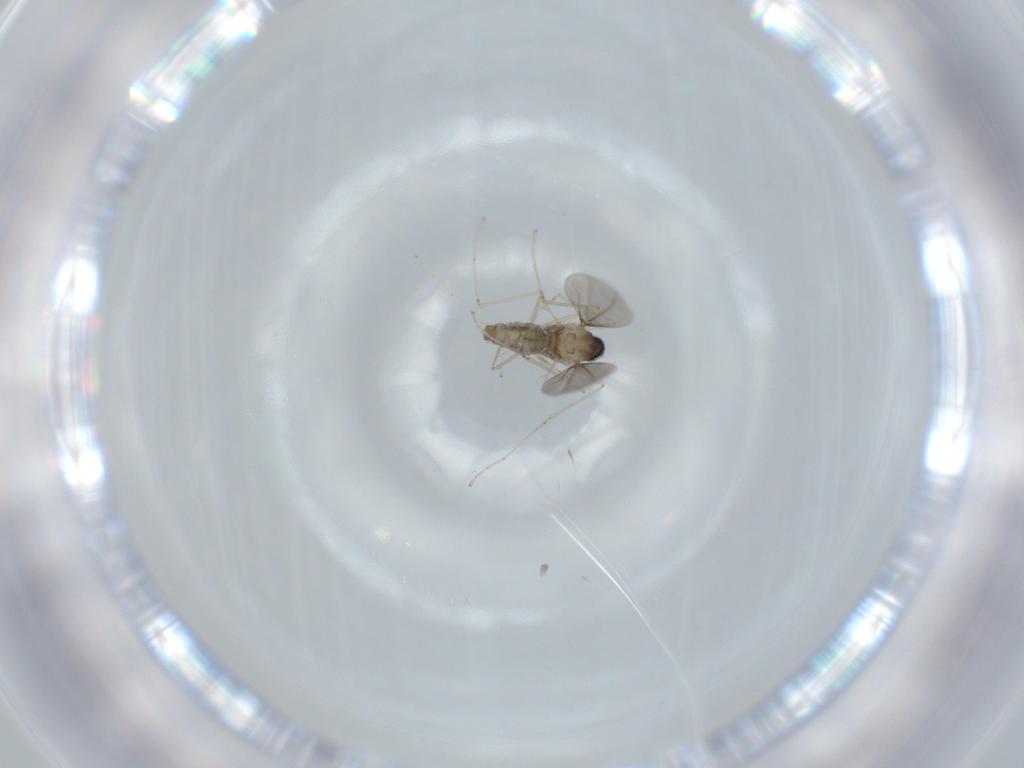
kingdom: Animalia
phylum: Arthropoda
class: Insecta
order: Diptera
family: Cecidomyiidae
